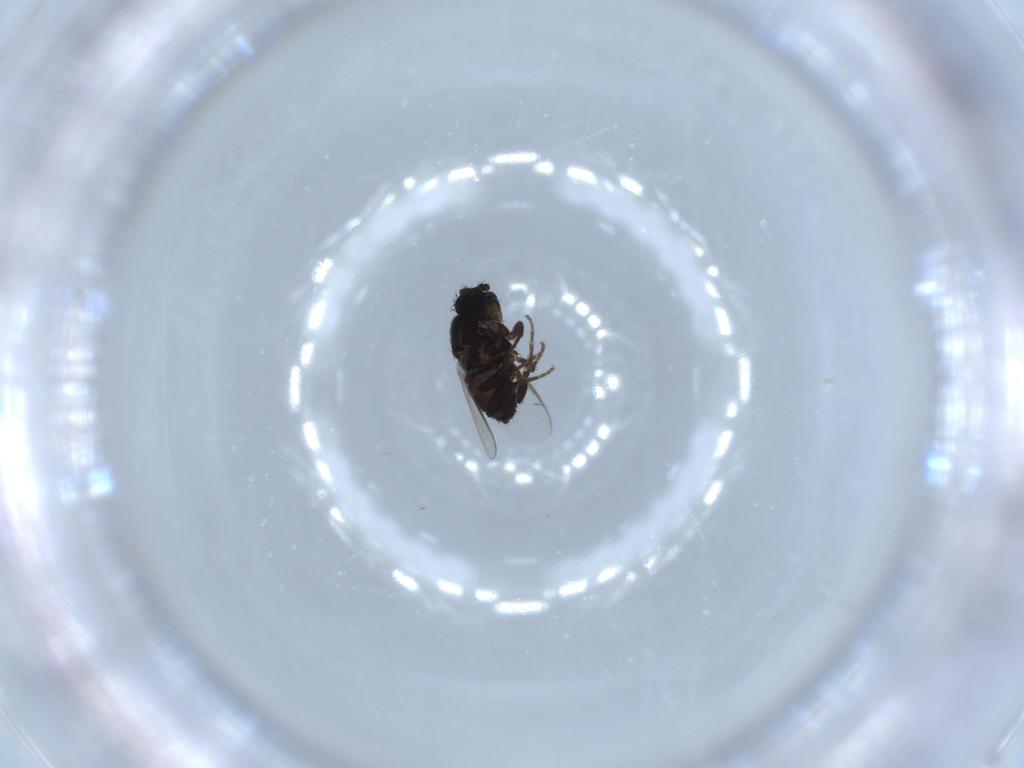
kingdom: Animalia
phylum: Arthropoda
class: Insecta
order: Diptera
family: Sphaeroceridae
